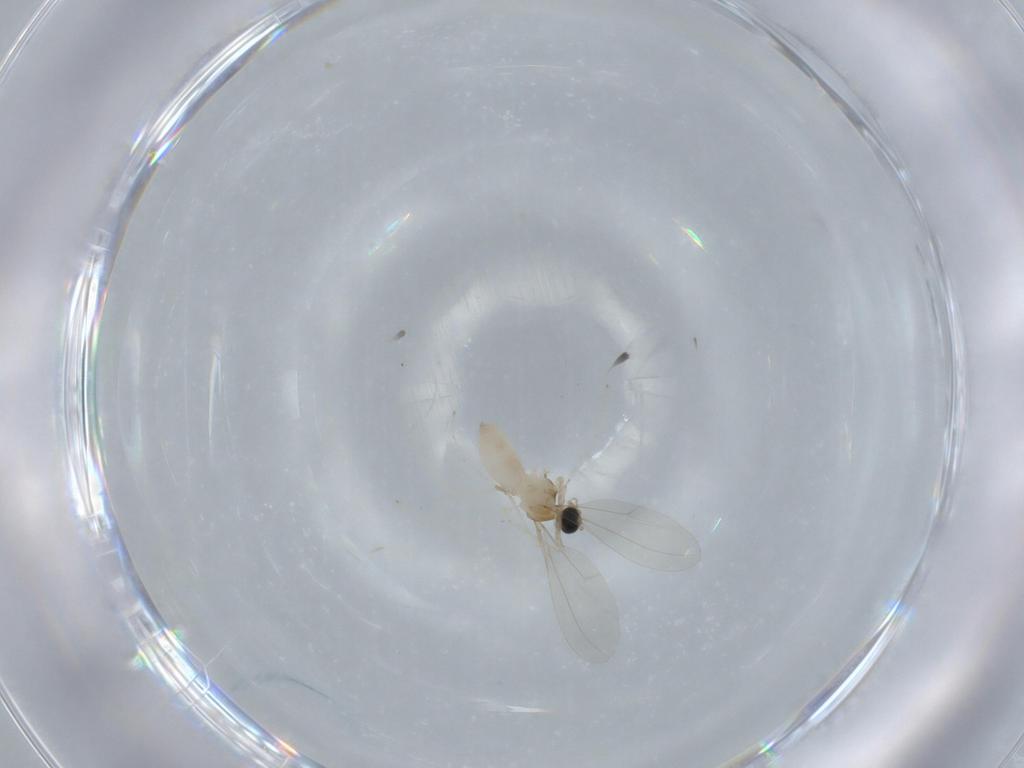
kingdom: Animalia
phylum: Arthropoda
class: Insecta
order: Diptera
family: Cecidomyiidae
